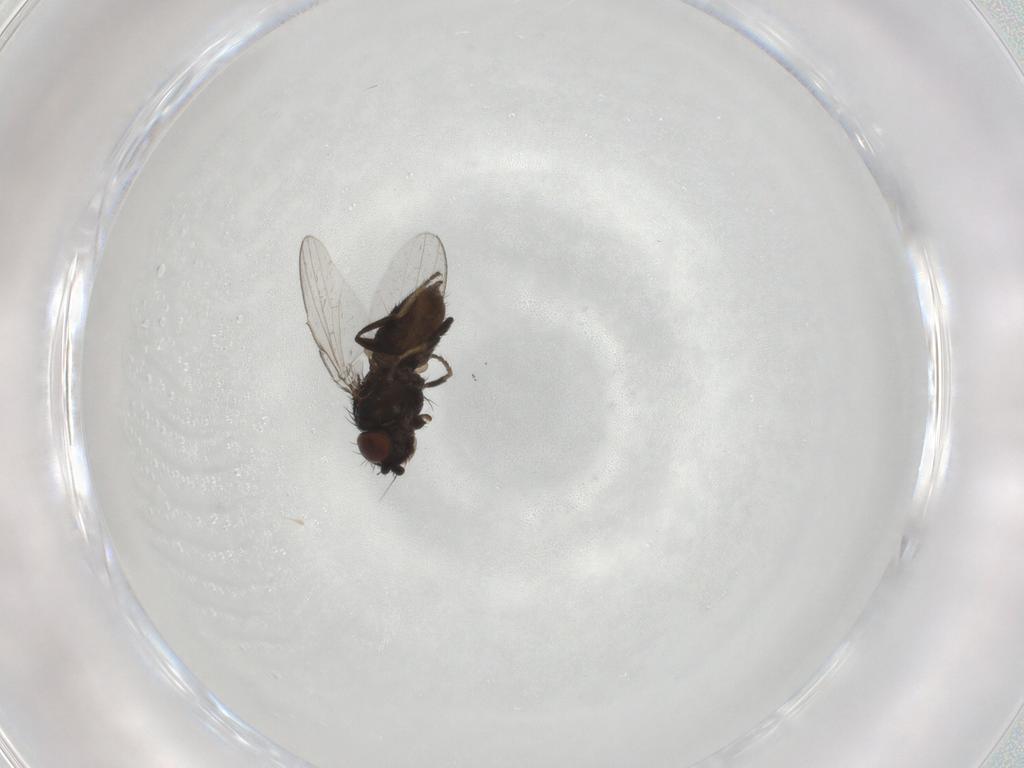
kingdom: Animalia
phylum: Arthropoda
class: Insecta
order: Diptera
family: Milichiidae
